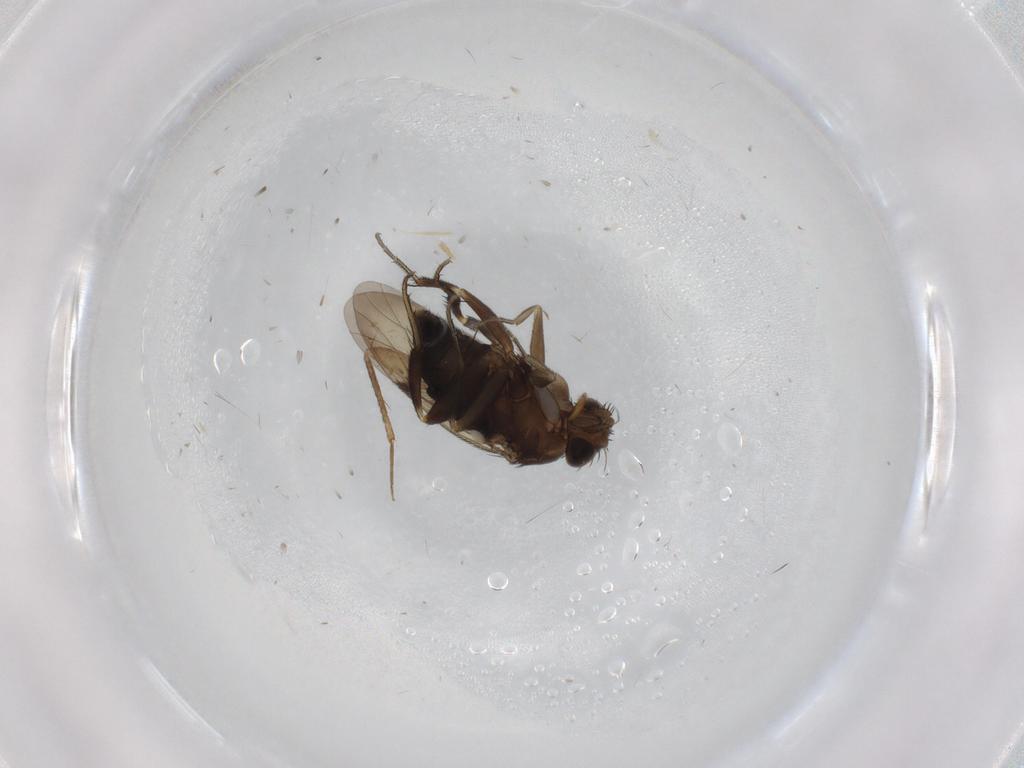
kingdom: Animalia
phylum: Arthropoda
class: Insecta
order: Diptera
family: Phoridae
